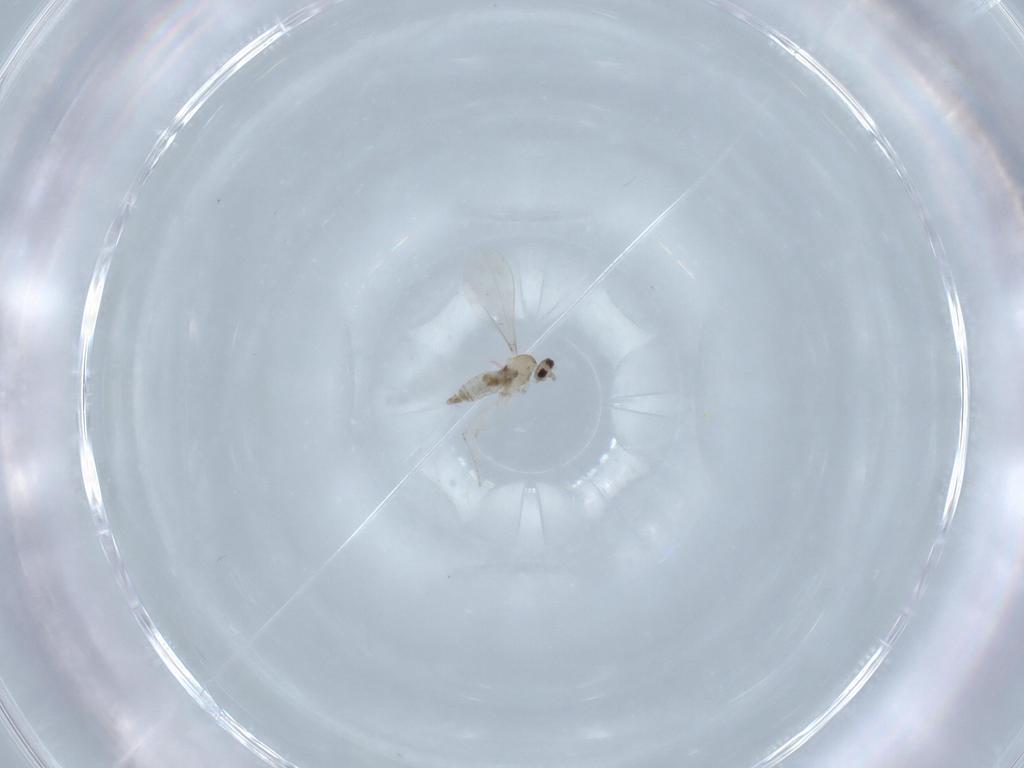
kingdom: Animalia
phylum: Arthropoda
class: Insecta
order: Diptera
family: Cecidomyiidae
